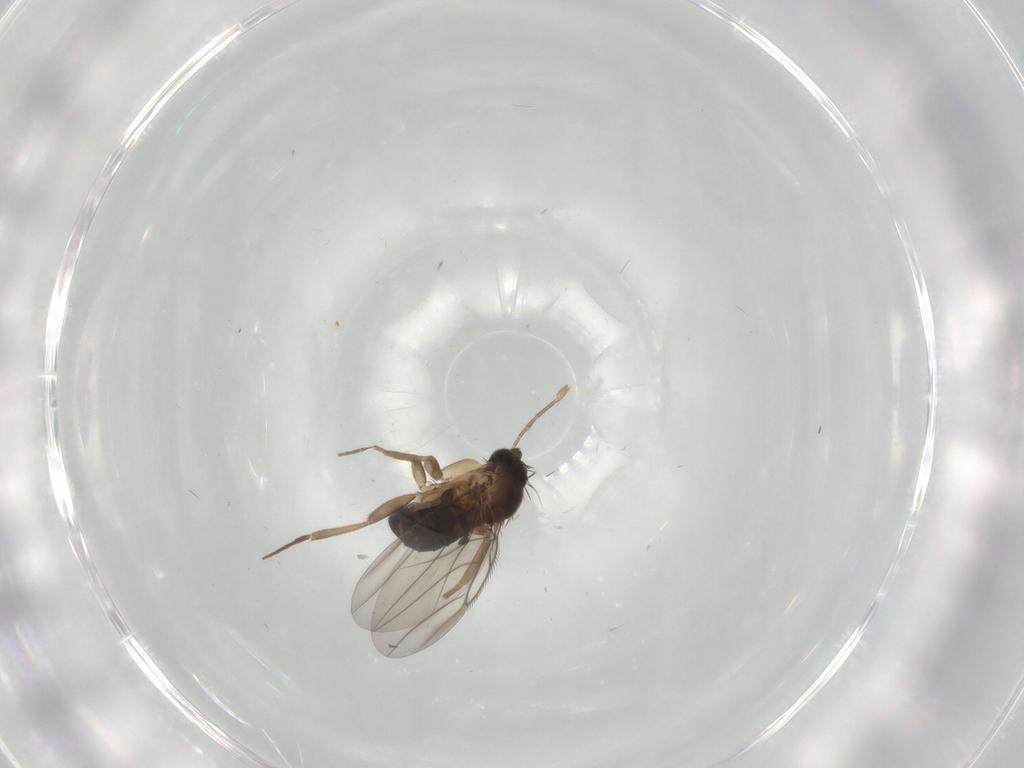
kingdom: Animalia
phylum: Arthropoda
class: Insecta
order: Diptera
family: Phoridae
